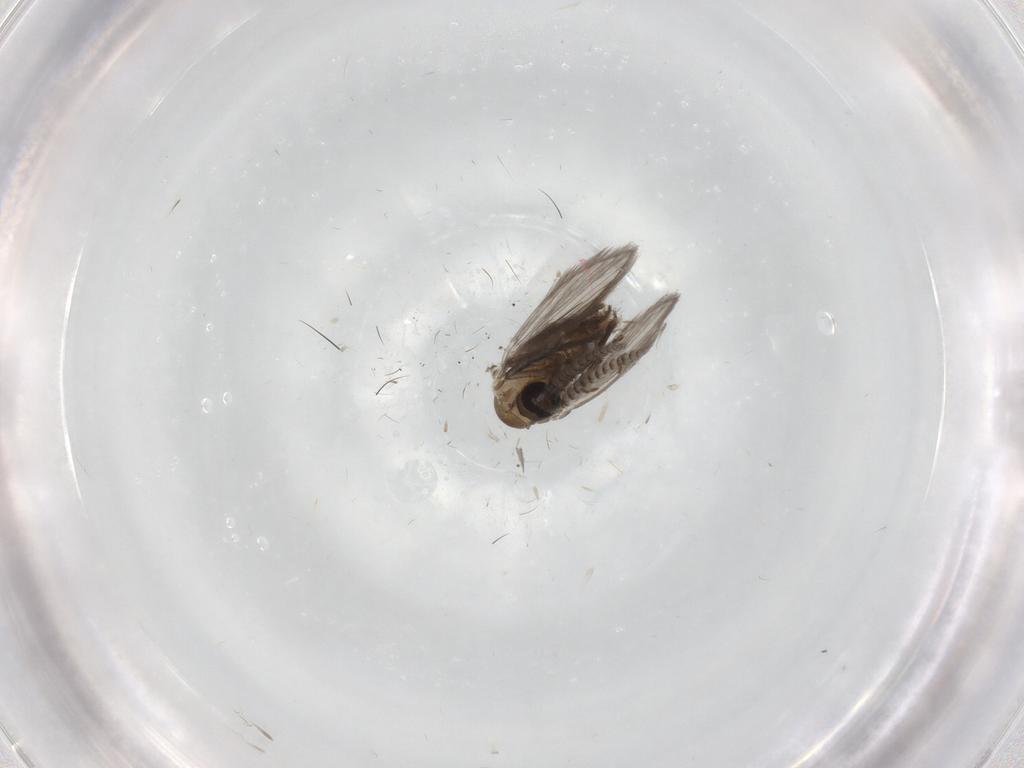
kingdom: Animalia
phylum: Arthropoda
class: Insecta
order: Diptera
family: Psychodidae
